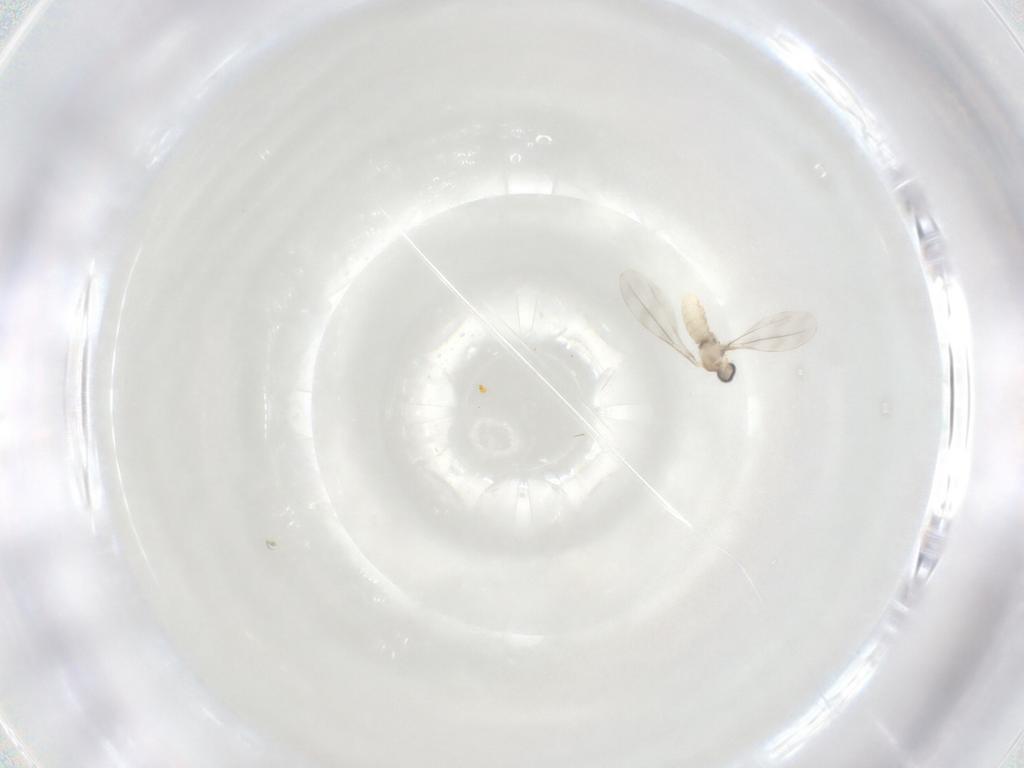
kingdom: Animalia
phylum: Arthropoda
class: Insecta
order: Diptera
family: Cecidomyiidae
